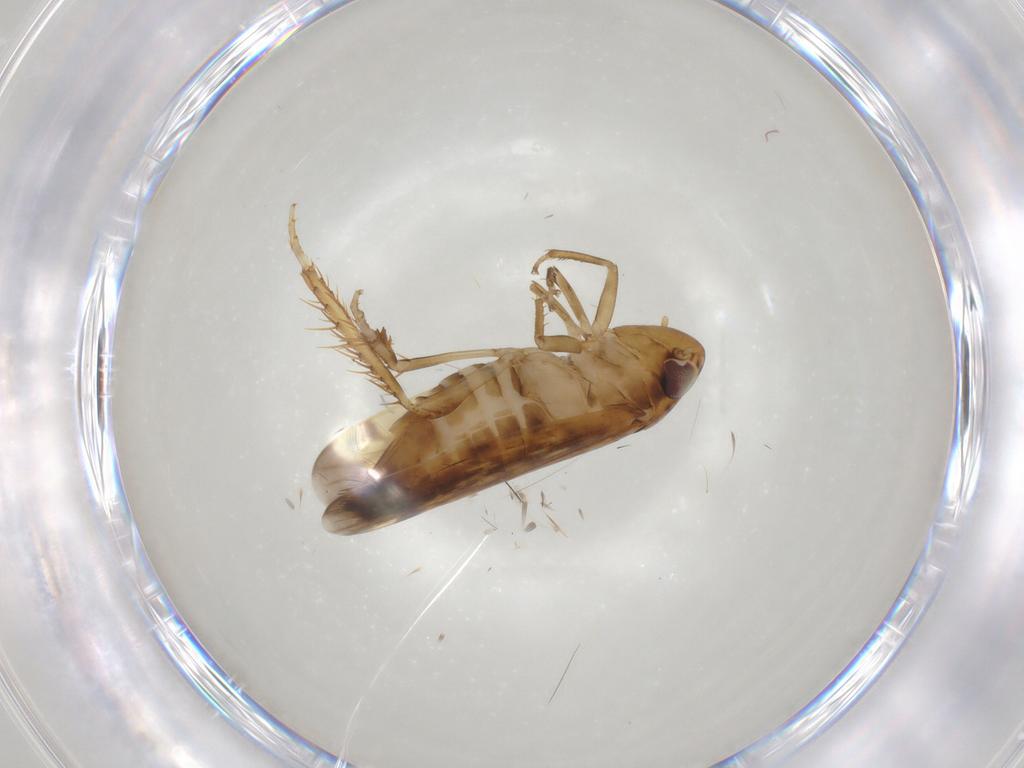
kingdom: Animalia
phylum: Arthropoda
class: Insecta
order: Hemiptera
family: Cicadellidae
